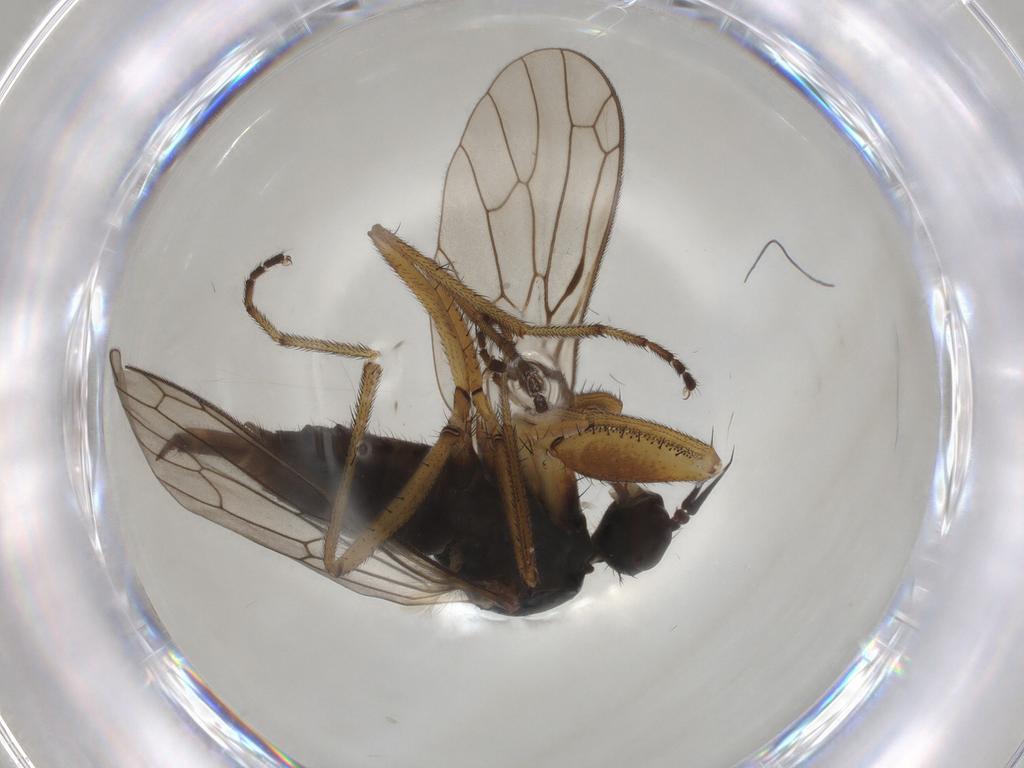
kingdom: Animalia
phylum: Arthropoda
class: Insecta
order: Diptera
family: Empididae
